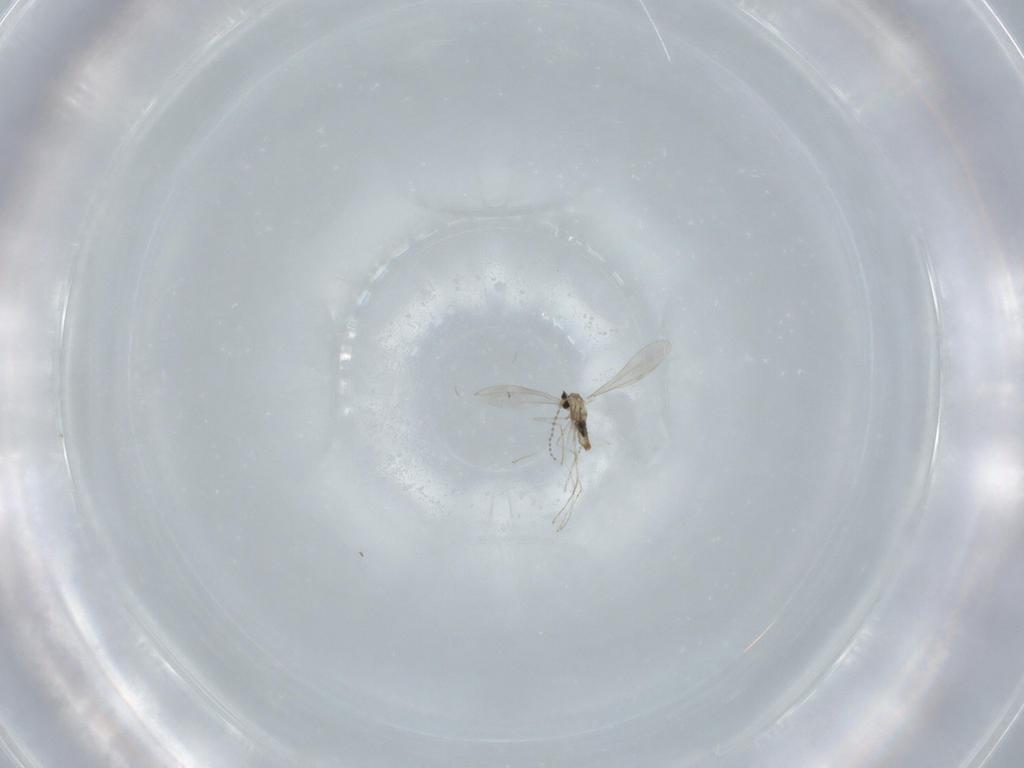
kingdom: Animalia
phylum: Arthropoda
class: Insecta
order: Diptera
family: Cecidomyiidae
